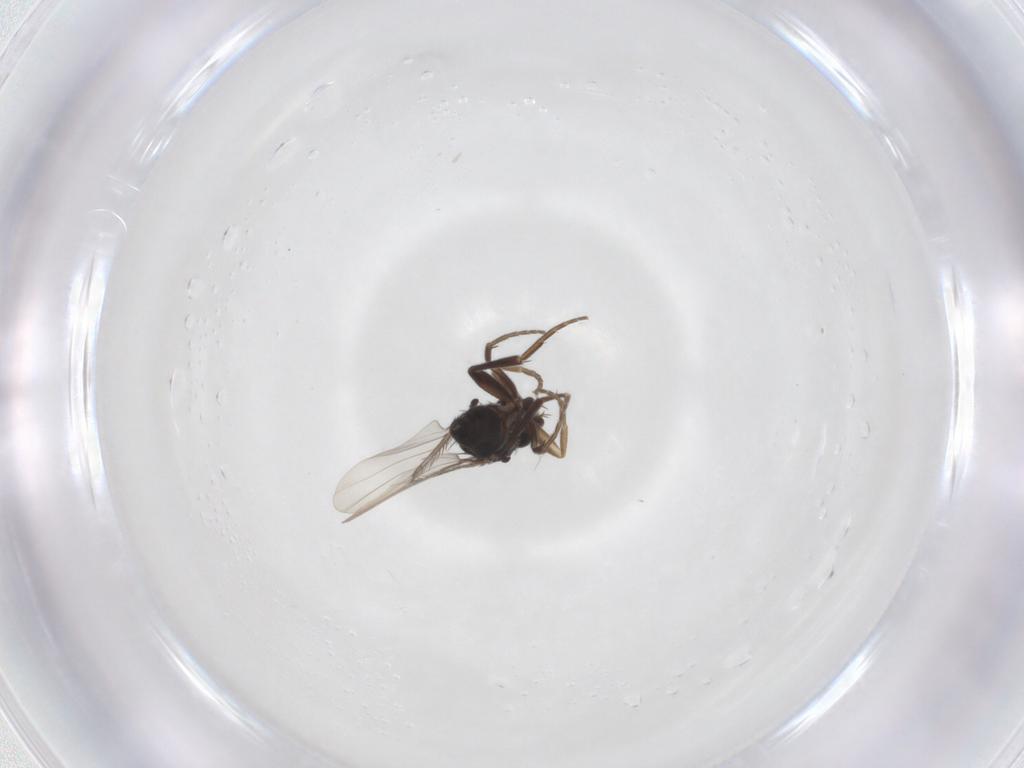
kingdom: Animalia
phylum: Arthropoda
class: Insecta
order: Diptera
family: Phoridae
